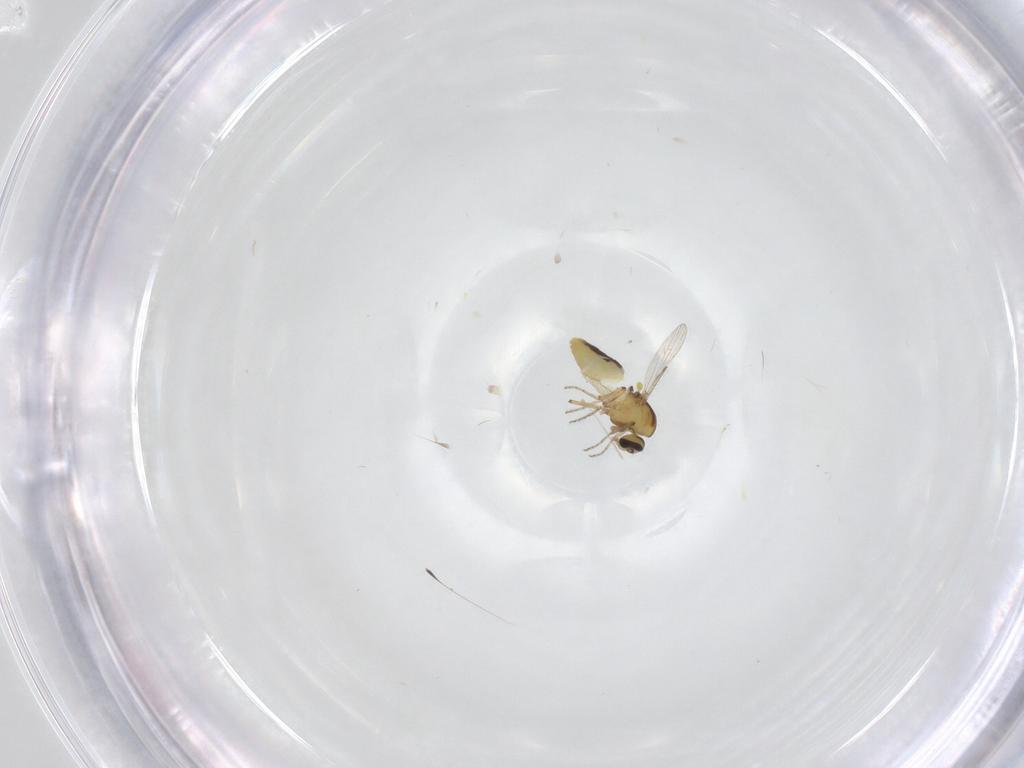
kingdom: Animalia
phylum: Arthropoda
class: Insecta
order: Diptera
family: Ceratopogonidae
